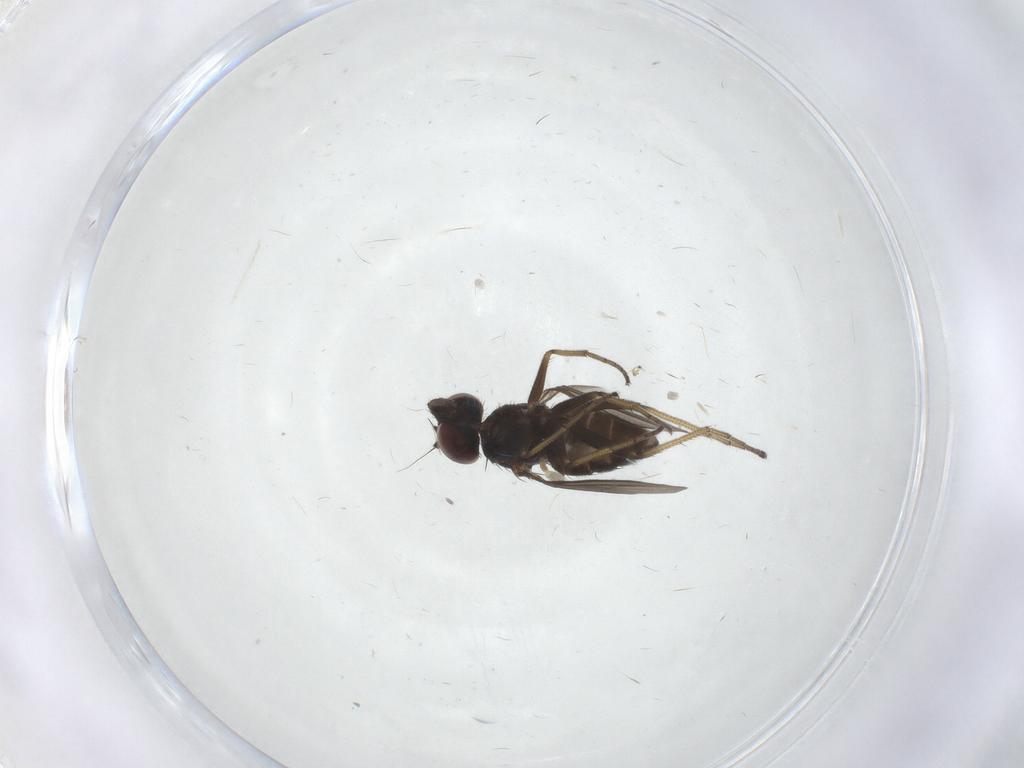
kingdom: Animalia
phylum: Arthropoda
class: Insecta
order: Diptera
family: Dolichopodidae
